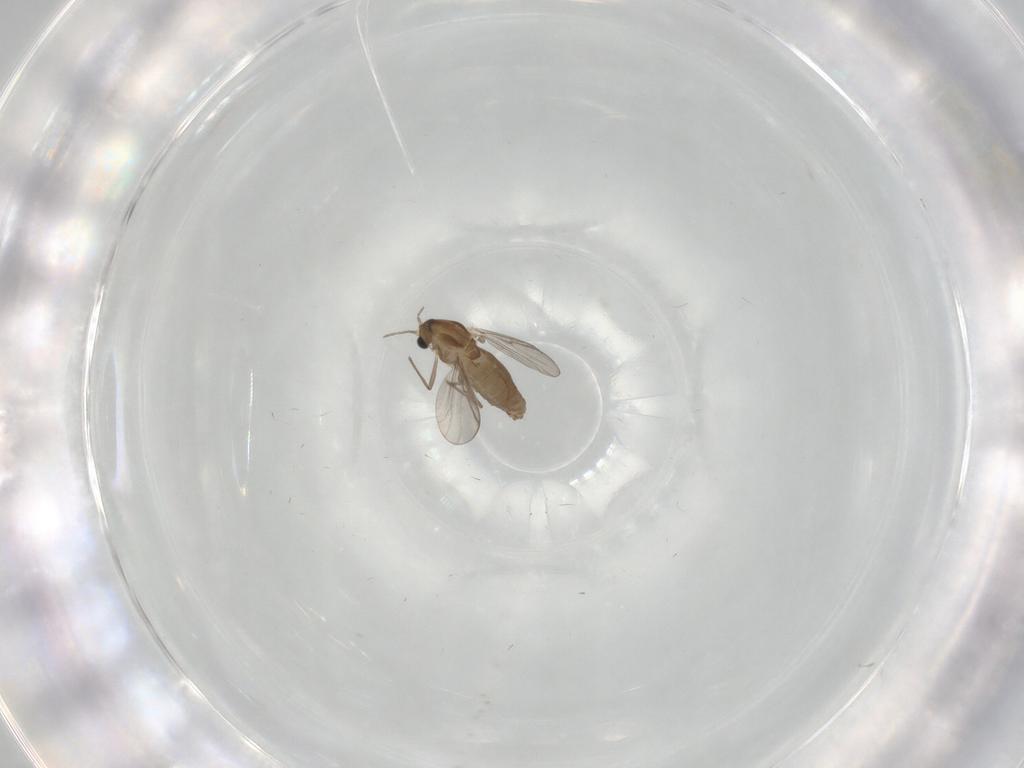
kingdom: Animalia
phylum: Arthropoda
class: Insecta
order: Diptera
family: Chironomidae
